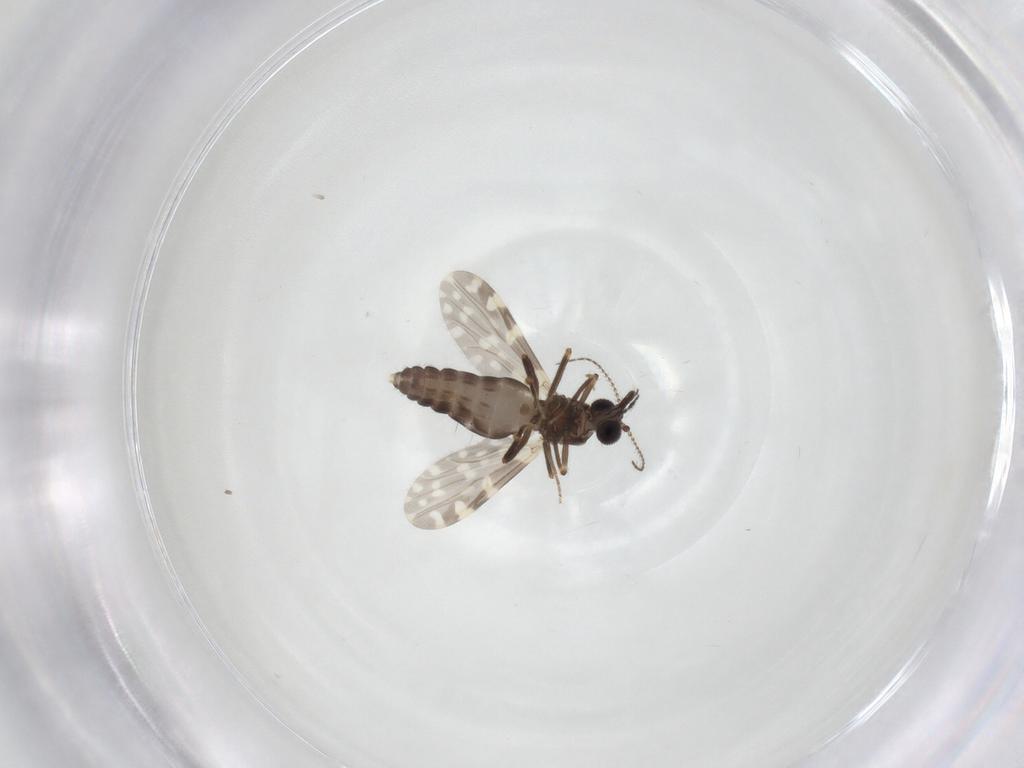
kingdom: Animalia
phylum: Arthropoda
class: Insecta
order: Diptera
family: Ceratopogonidae
